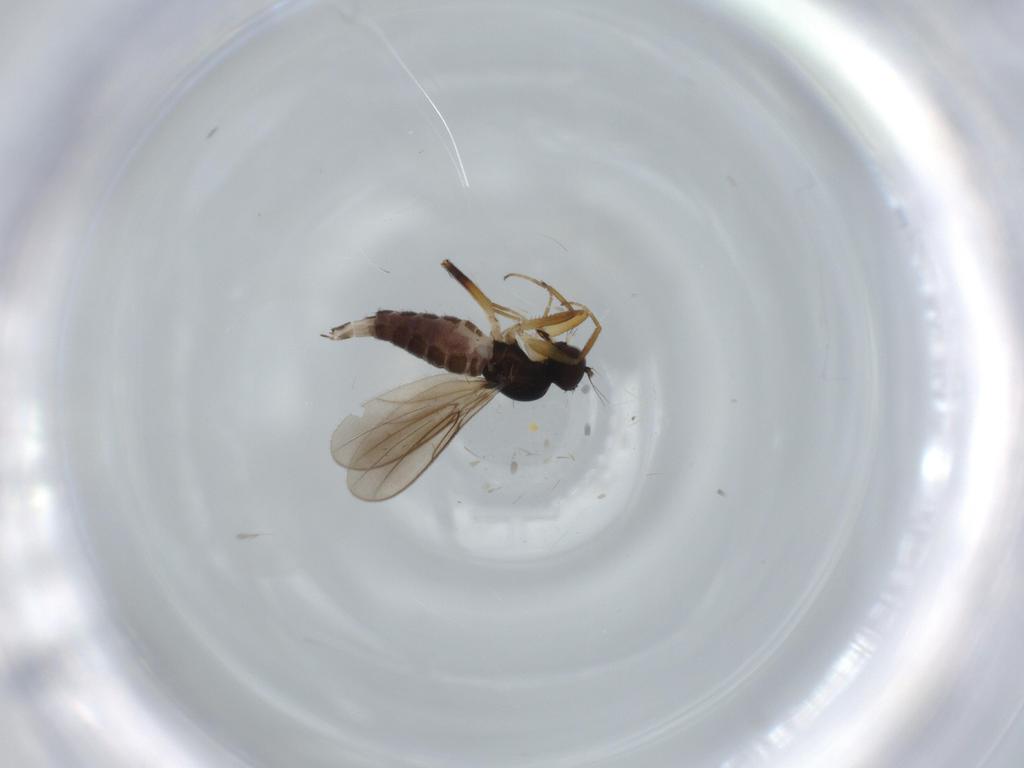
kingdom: Animalia
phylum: Arthropoda
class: Insecta
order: Diptera
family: Hybotidae
